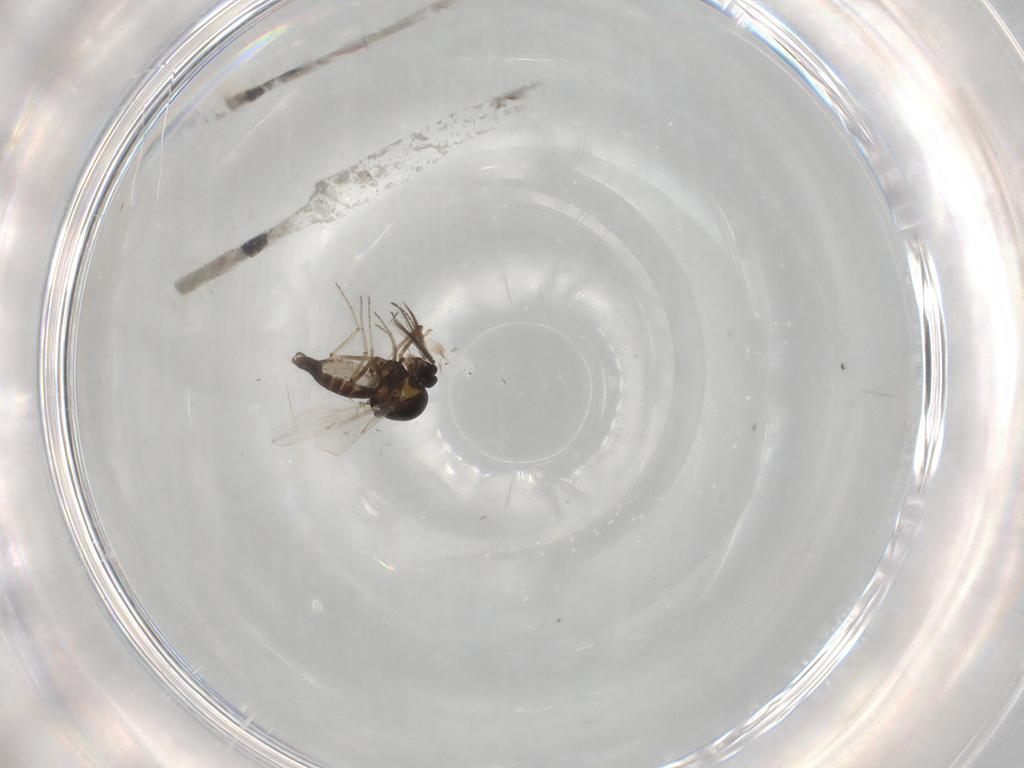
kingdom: Animalia
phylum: Arthropoda
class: Insecta
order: Diptera
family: Ceratopogonidae
